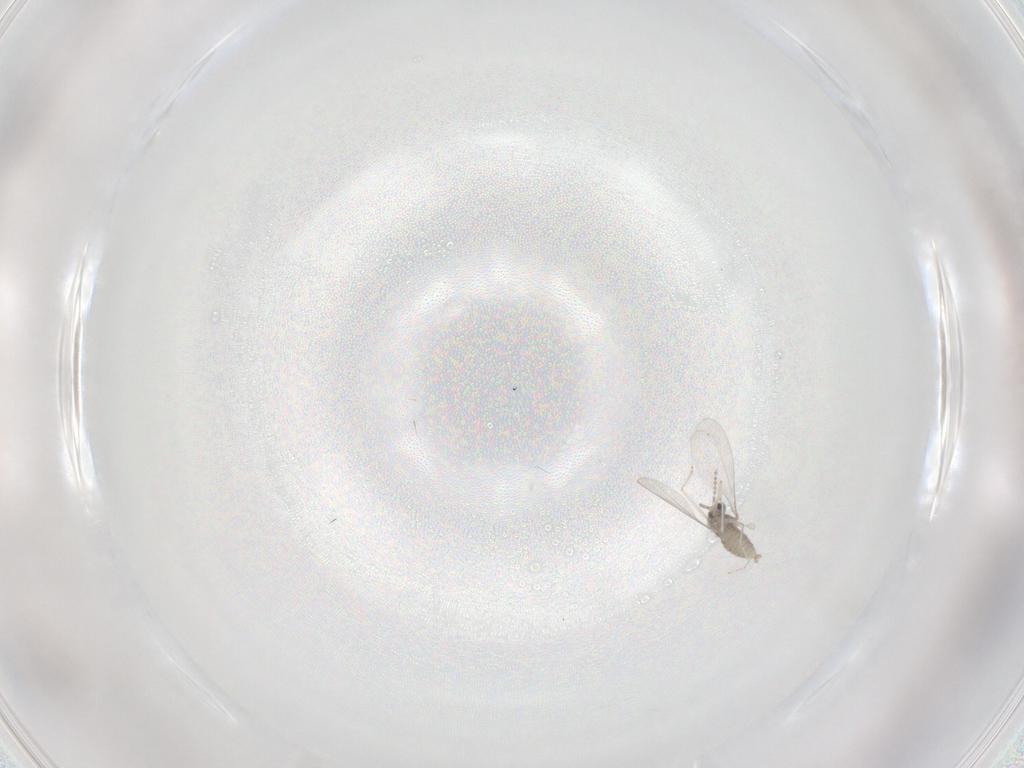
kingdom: Animalia
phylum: Arthropoda
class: Insecta
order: Diptera
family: Cecidomyiidae
